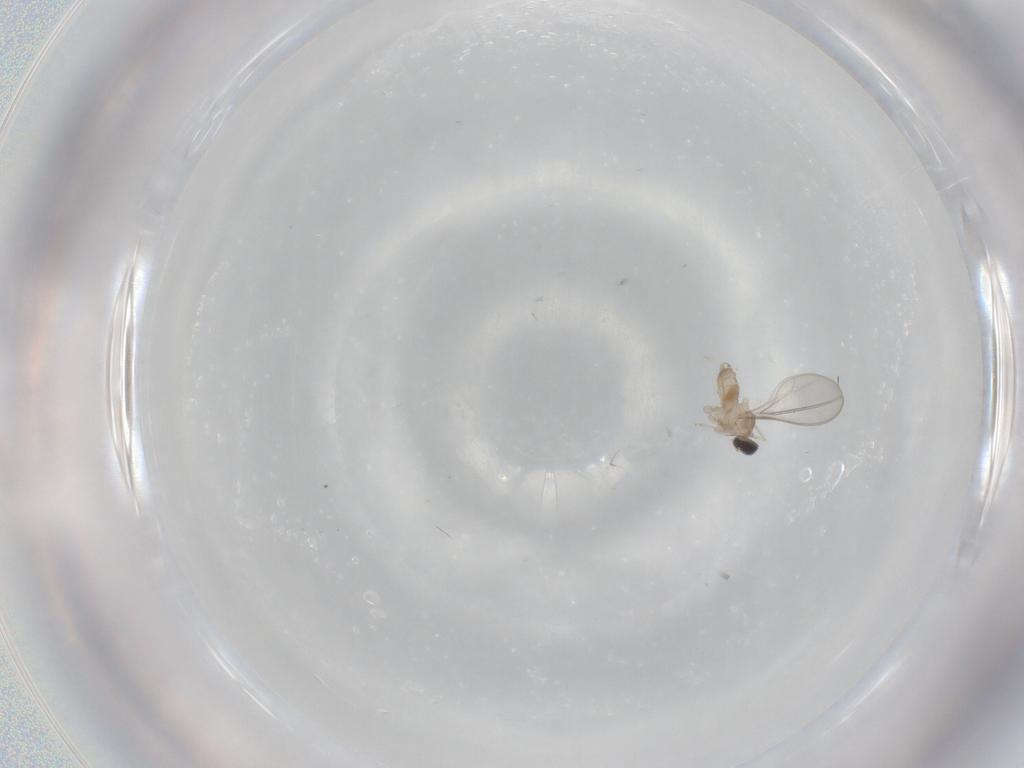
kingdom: Animalia
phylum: Arthropoda
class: Insecta
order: Diptera
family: Cecidomyiidae
